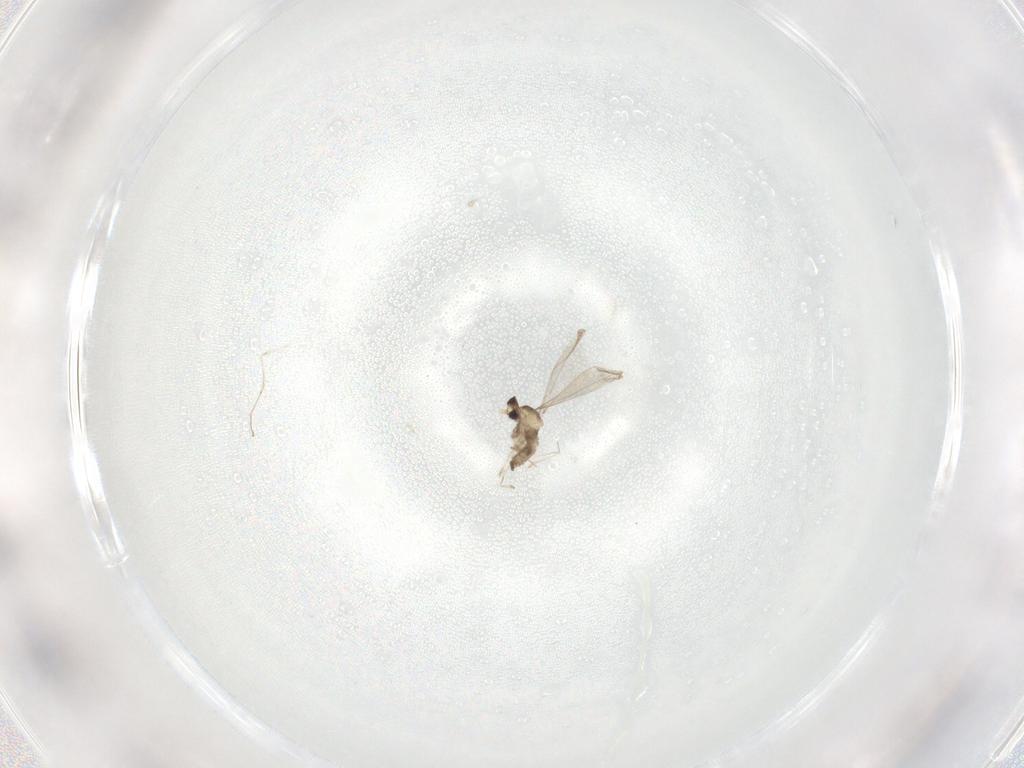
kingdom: Animalia
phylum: Arthropoda
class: Insecta
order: Diptera
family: Cecidomyiidae
